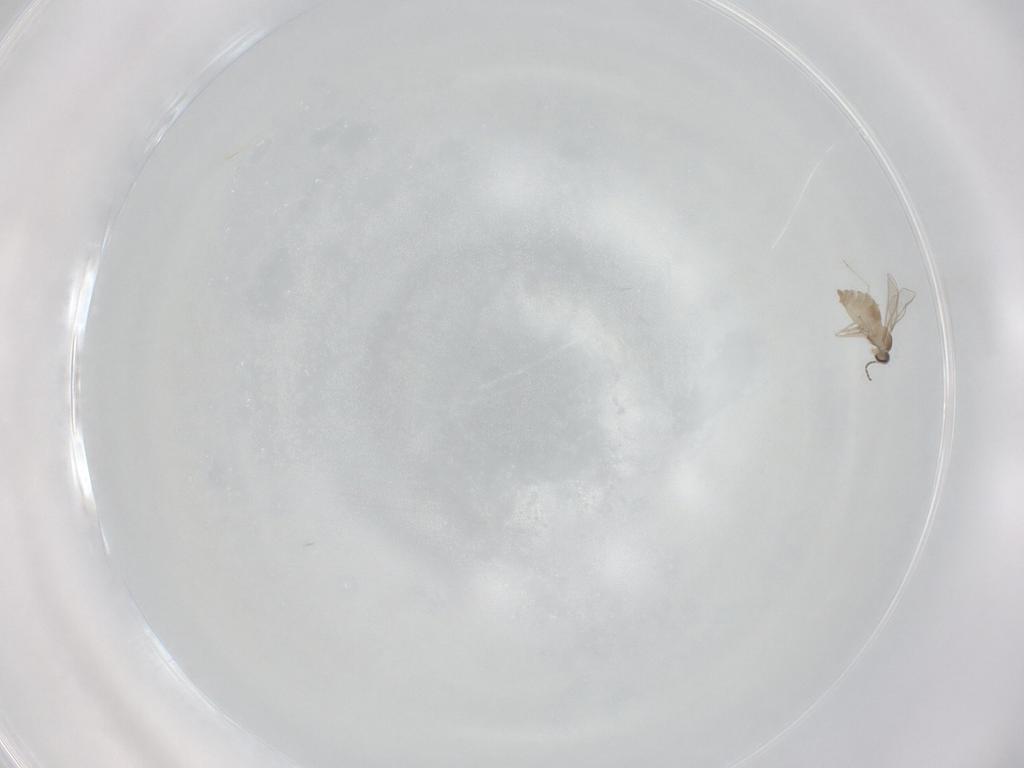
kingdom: Animalia
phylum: Arthropoda
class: Insecta
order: Diptera
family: Cecidomyiidae
